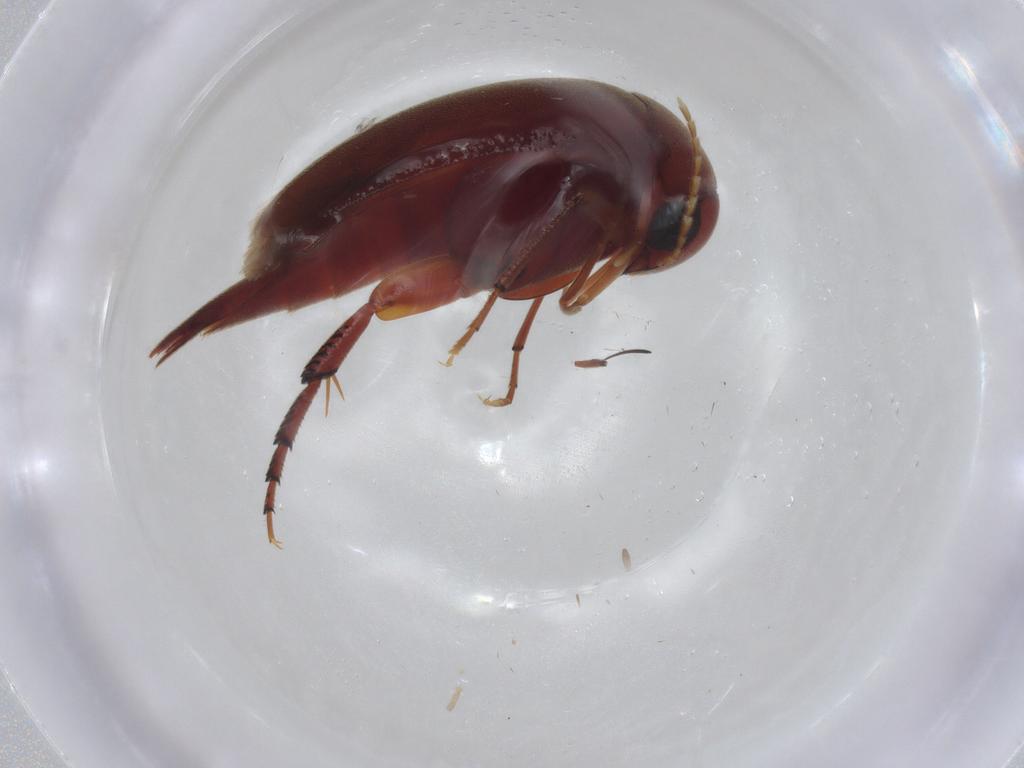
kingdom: Animalia
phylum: Arthropoda
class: Insecta
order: Coleoptera
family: Mordellidae
